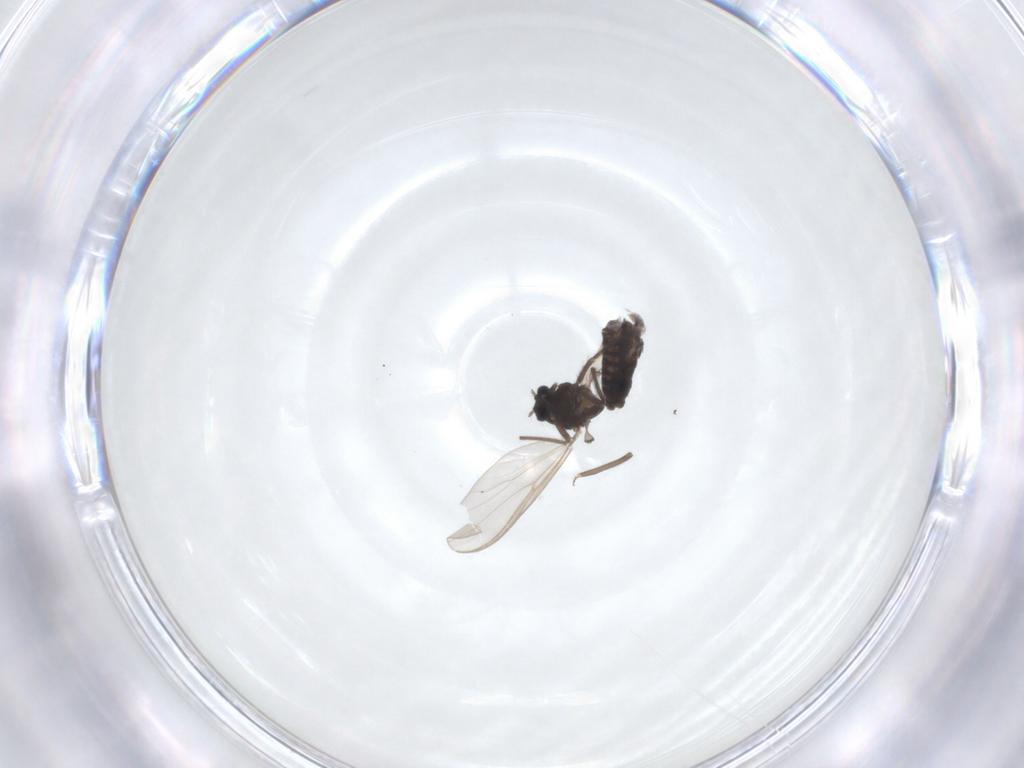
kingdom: Animalia
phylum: Arthropoda
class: Insecta
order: Diptera
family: Chironomidae
